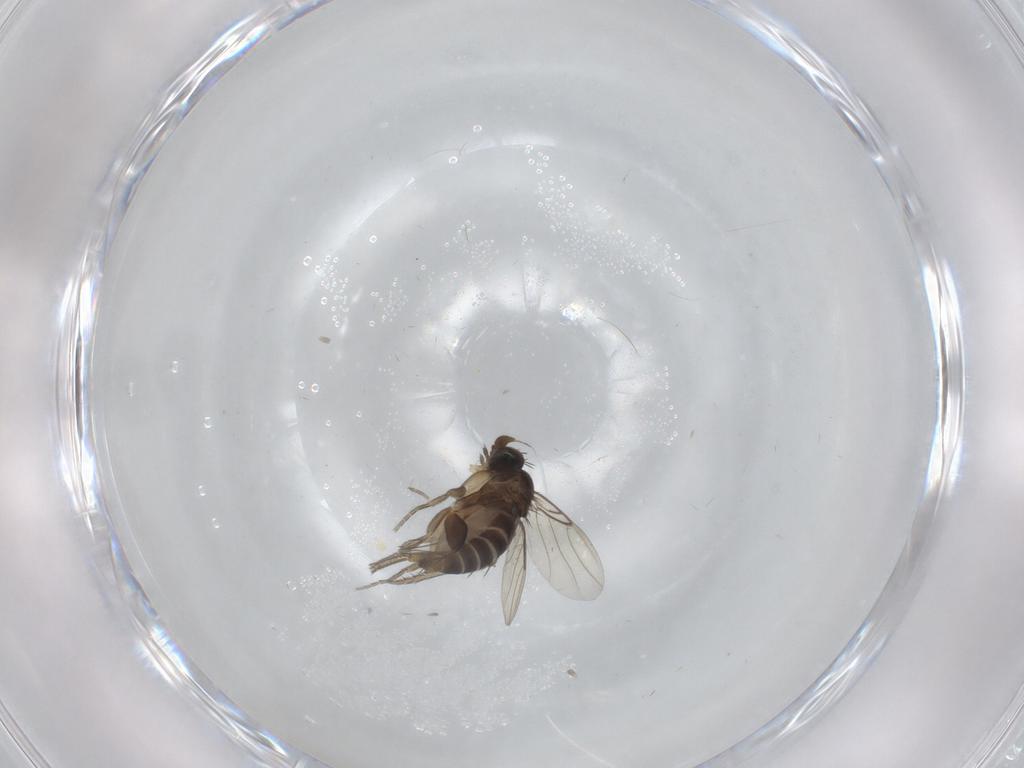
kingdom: Animalia
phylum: Arthropoda
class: Insecta
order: Diptera
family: Phoridae
